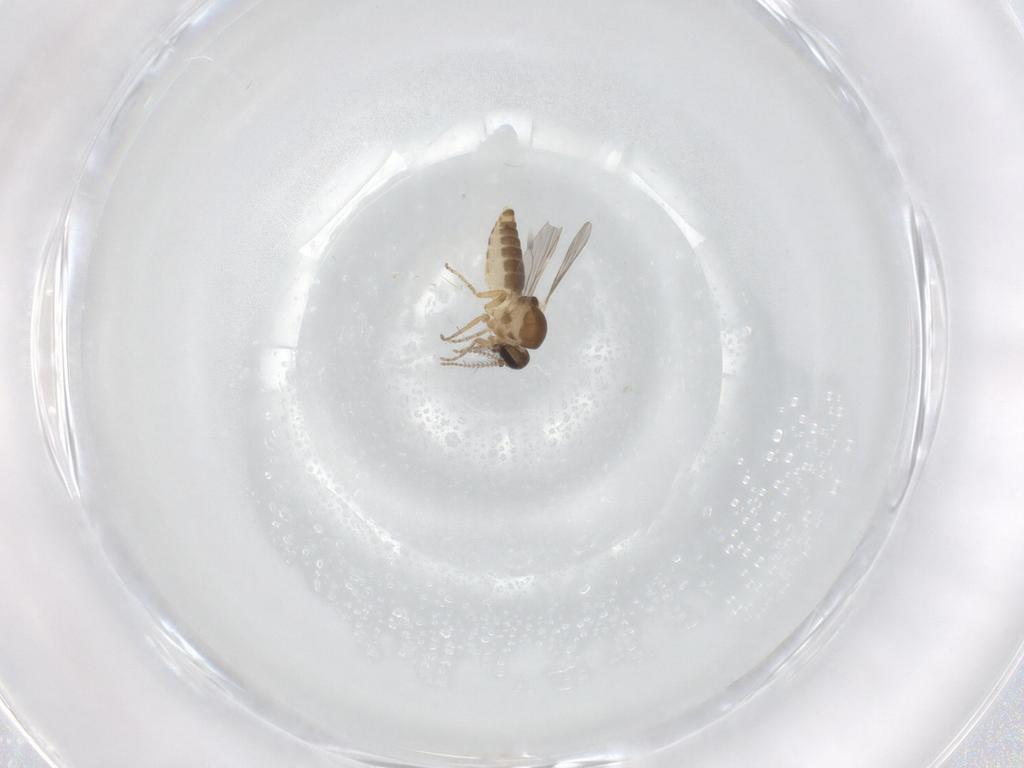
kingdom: Animalia
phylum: Arthropoda
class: Insecta
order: Diptera
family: Ceratopogonidae
